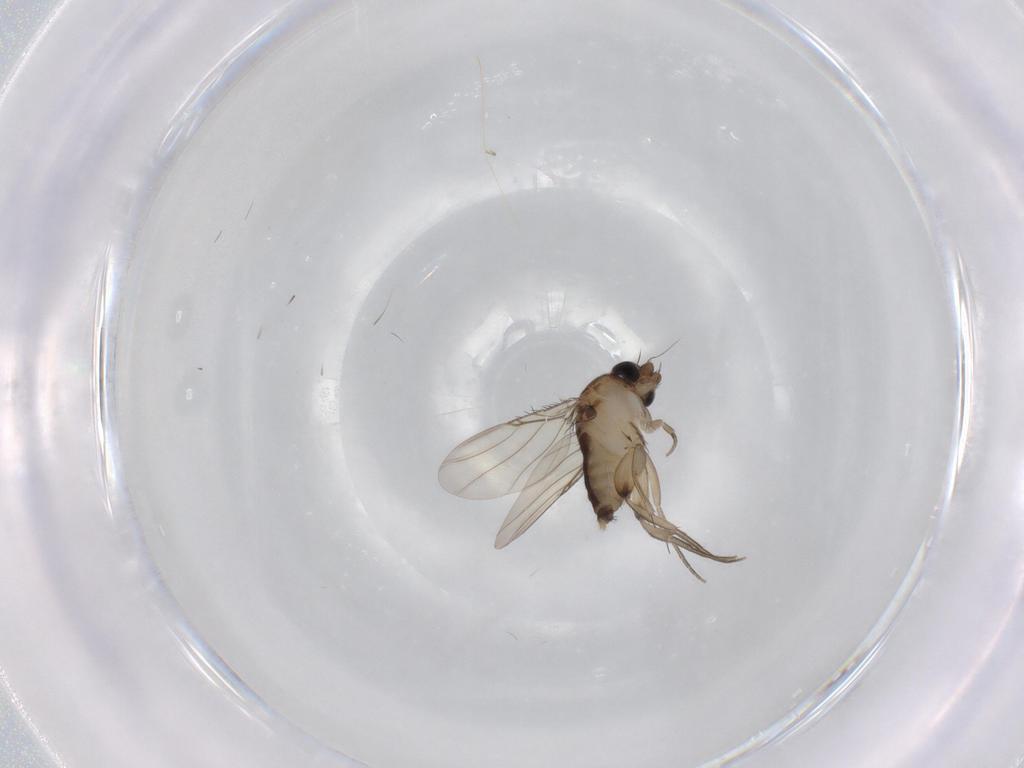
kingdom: Animalia
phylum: Arthropoda
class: Insecta
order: Diptera
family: Phoridae
